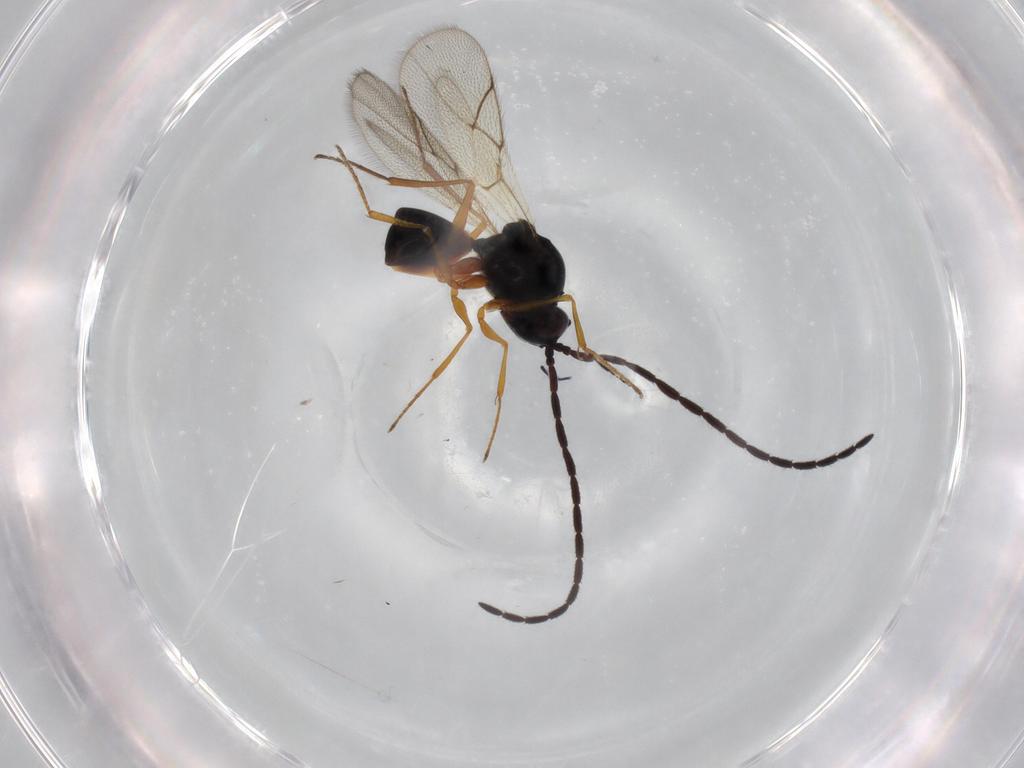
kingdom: Animalia
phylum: Arthropoda
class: Insecta
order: Hymenoptera
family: Figitidae
